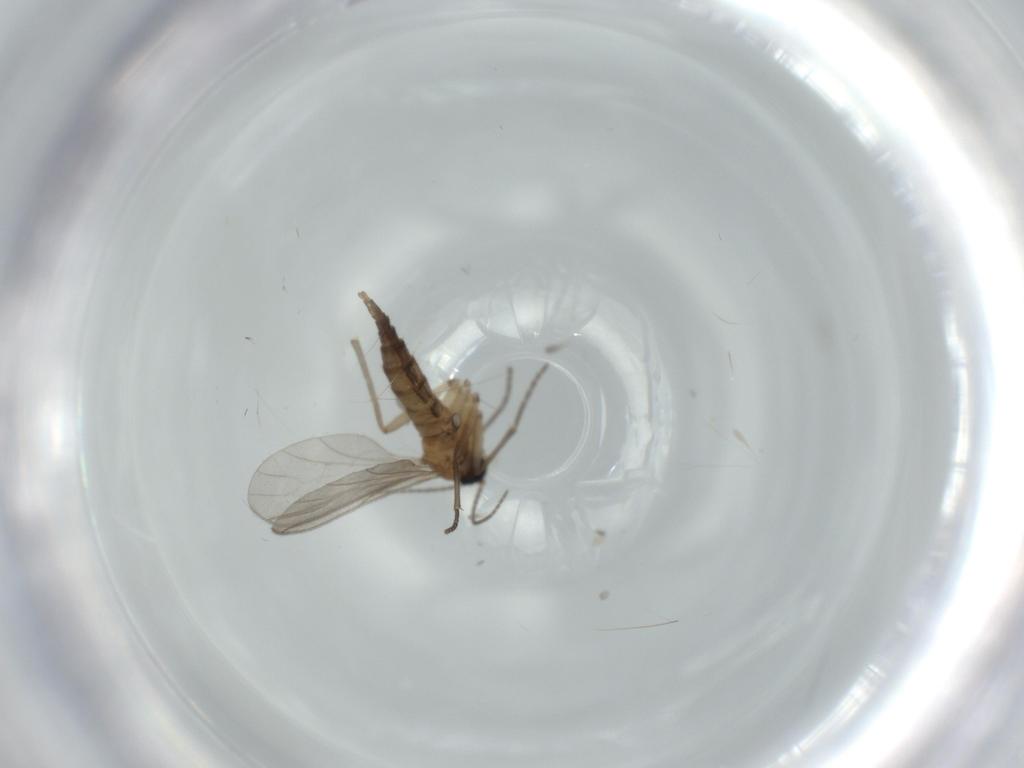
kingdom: Animalia
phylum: Arthropoda
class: Insecta
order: Diptera
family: Sciaridae
